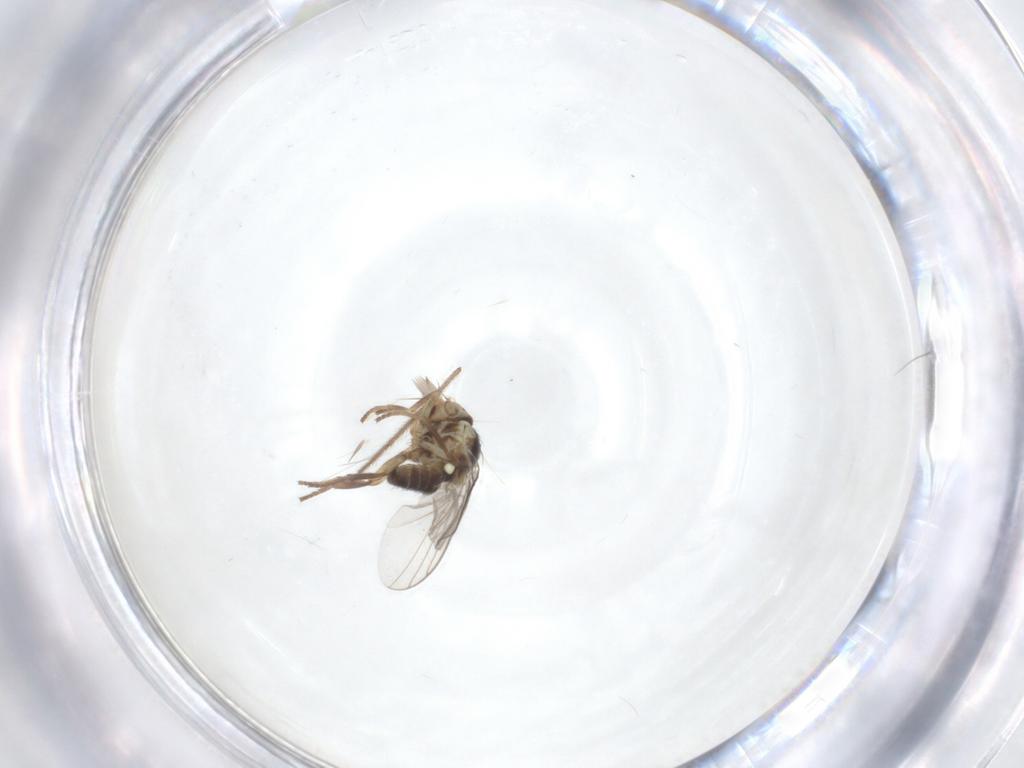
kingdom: Animalia
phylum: Arthropoda
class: Insecta
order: Diptera
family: Agromyzidae
